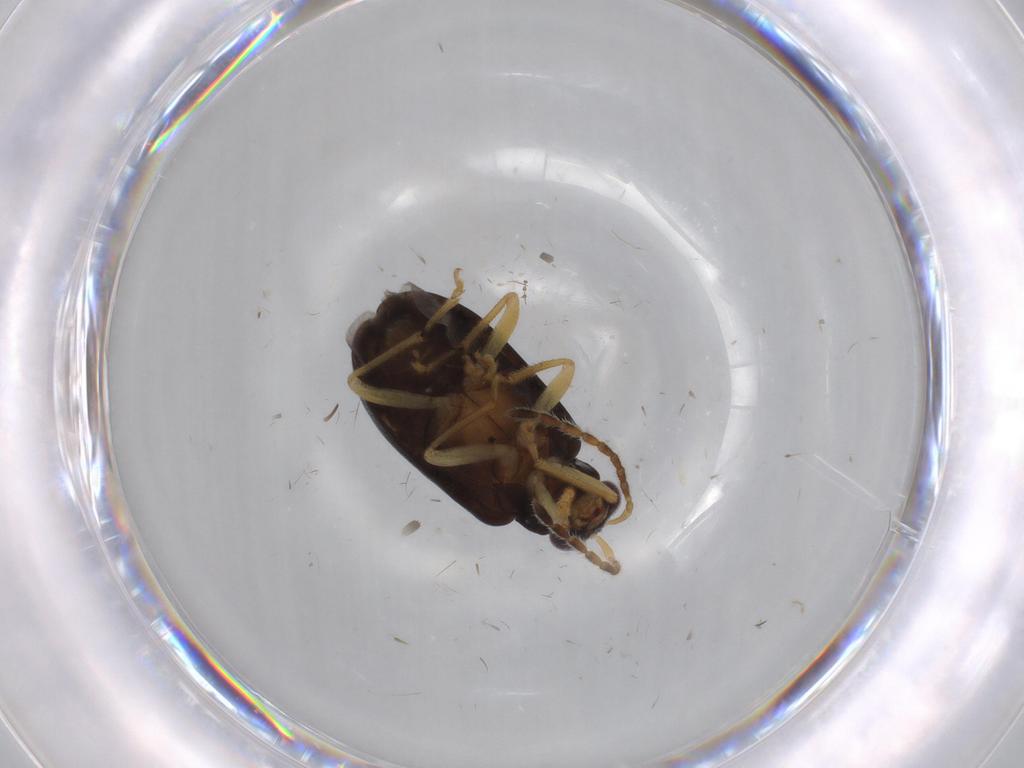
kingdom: Animalia
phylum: Arthropoda
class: Insecta
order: Coleoptera
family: Chrysomelidae
